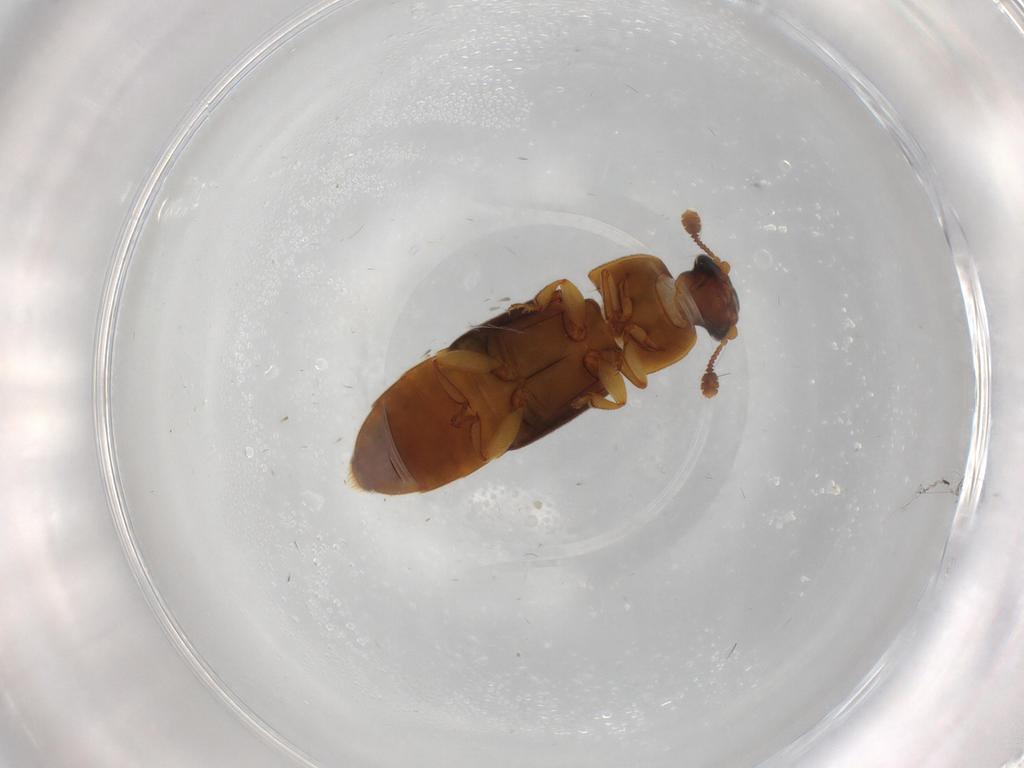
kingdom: Animalia
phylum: Arthropoda
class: Insecta
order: Coleoptera
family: Nitidulidae
